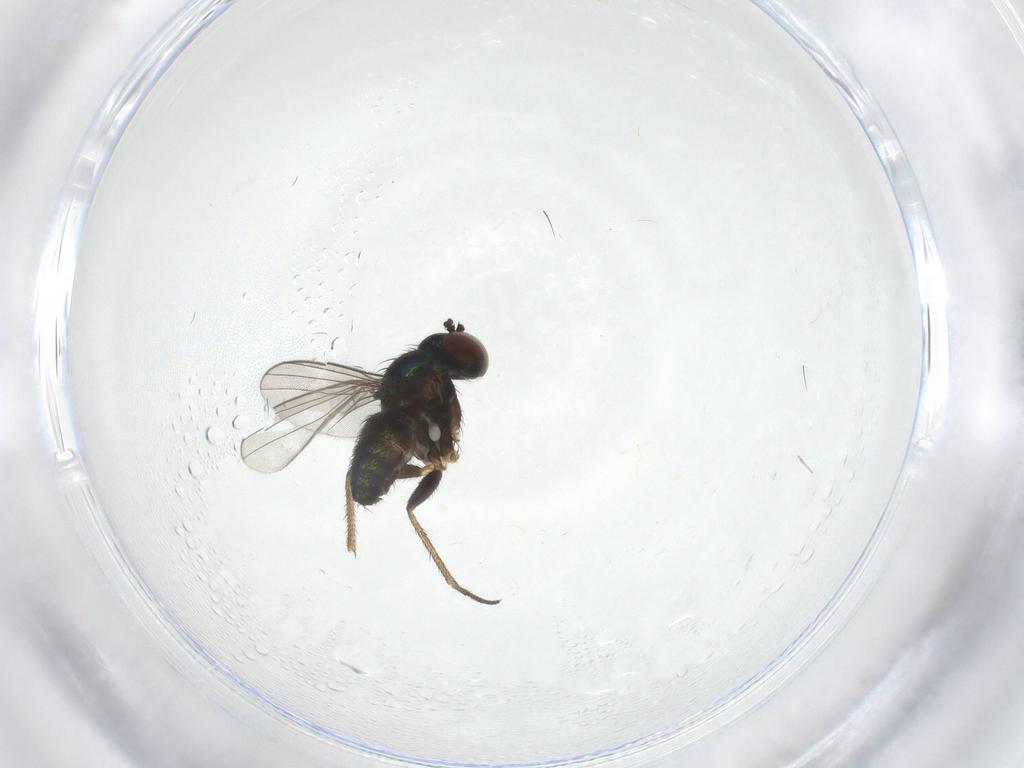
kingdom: Animalia
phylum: Arthropoda
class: Insecta
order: Diptera
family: Dolichopodidae
